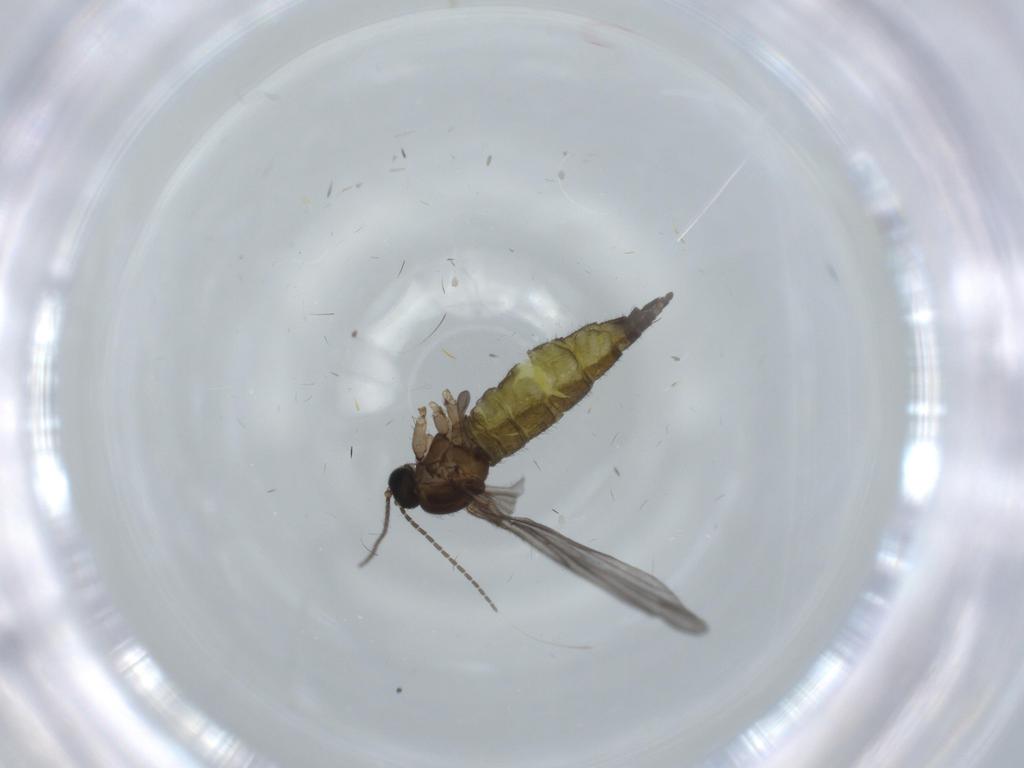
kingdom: Animalia
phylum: Arthropoda
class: Insecta
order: Diptera
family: Sciaridae
